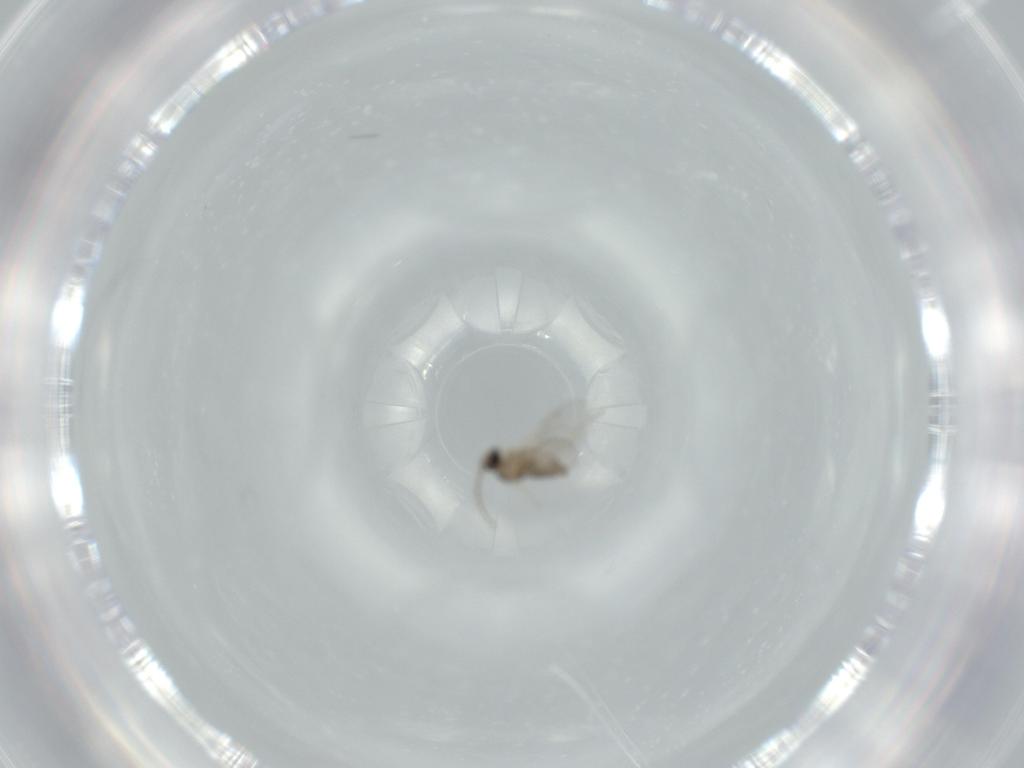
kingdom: Animalia
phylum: Arthropoda
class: Insecta
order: Diptera
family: Cecidomyiidae
